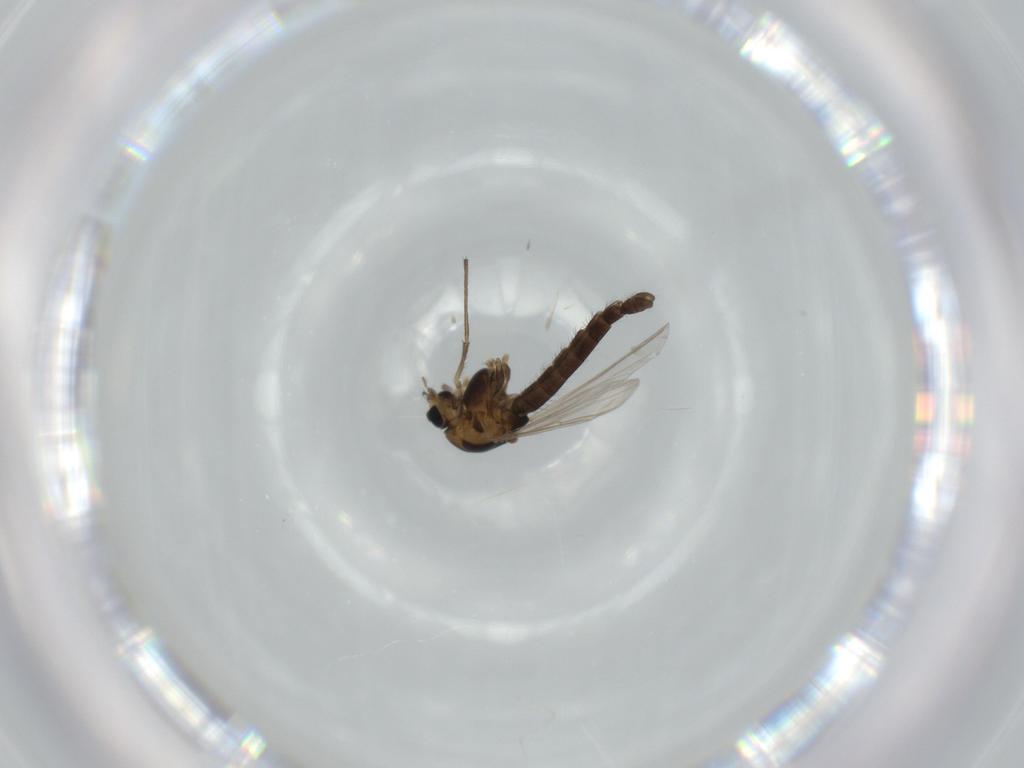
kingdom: Animalia
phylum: Arthropoda
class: Insecta
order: Diptera
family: Chironomidae
